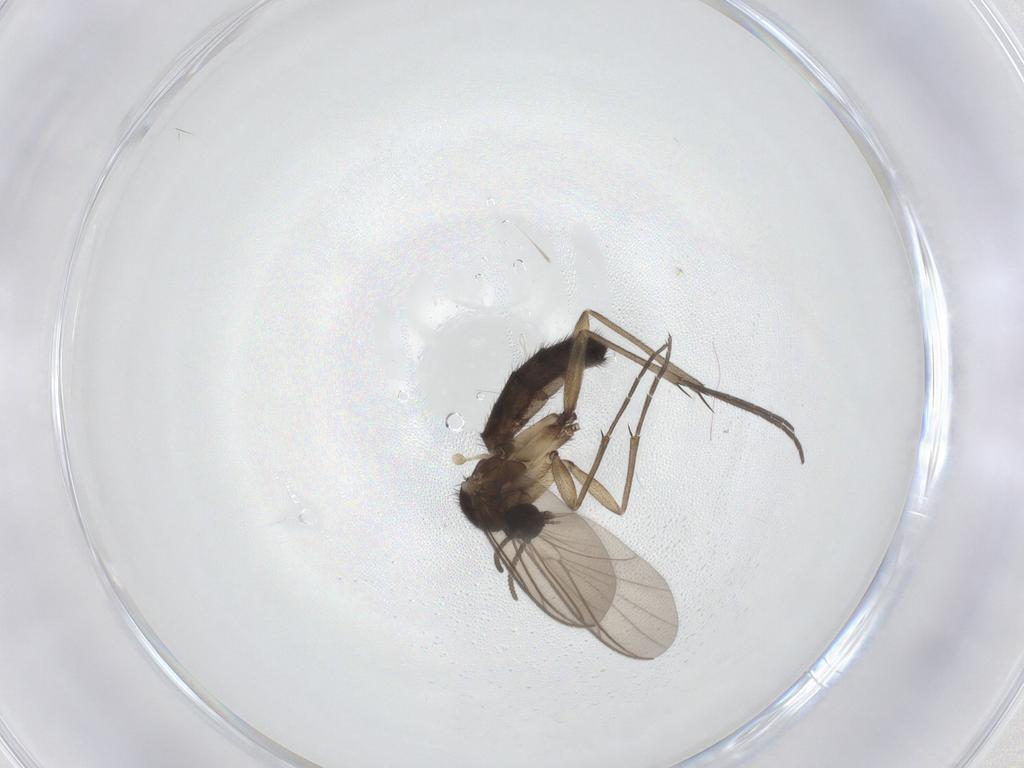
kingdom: Animalia
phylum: Arthropoda
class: Insecta
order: Diptera
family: Keroplatidae
